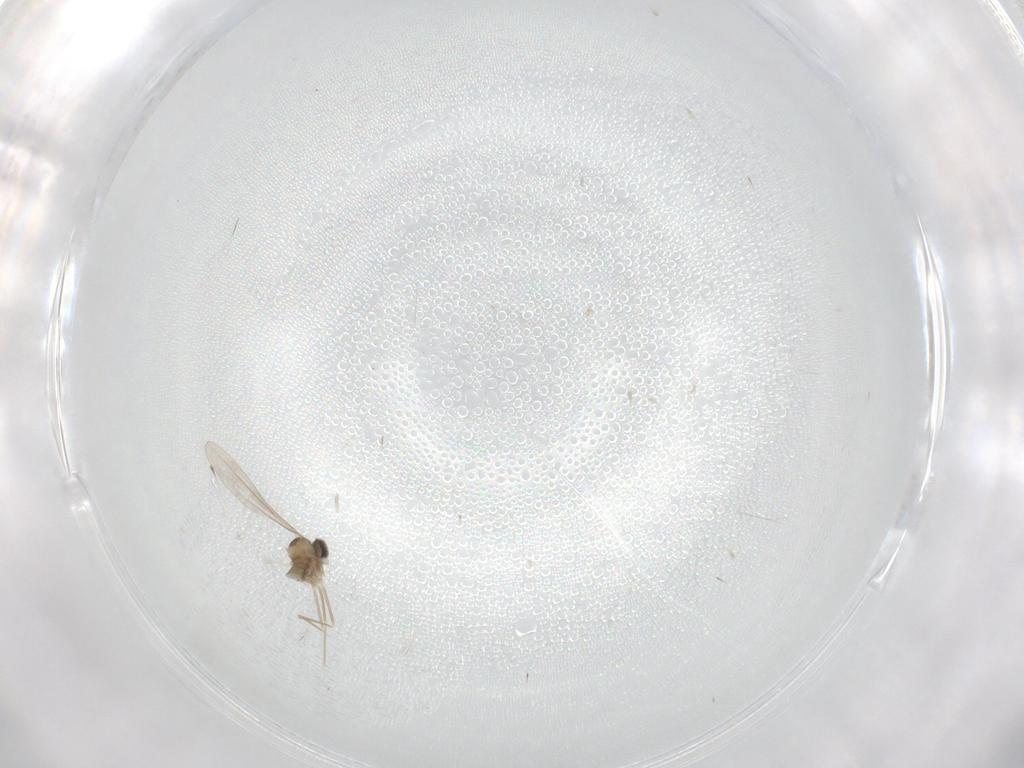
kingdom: Animalia
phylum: Arthropoda
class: Insecta
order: Diptera
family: Cecidomyiidae
